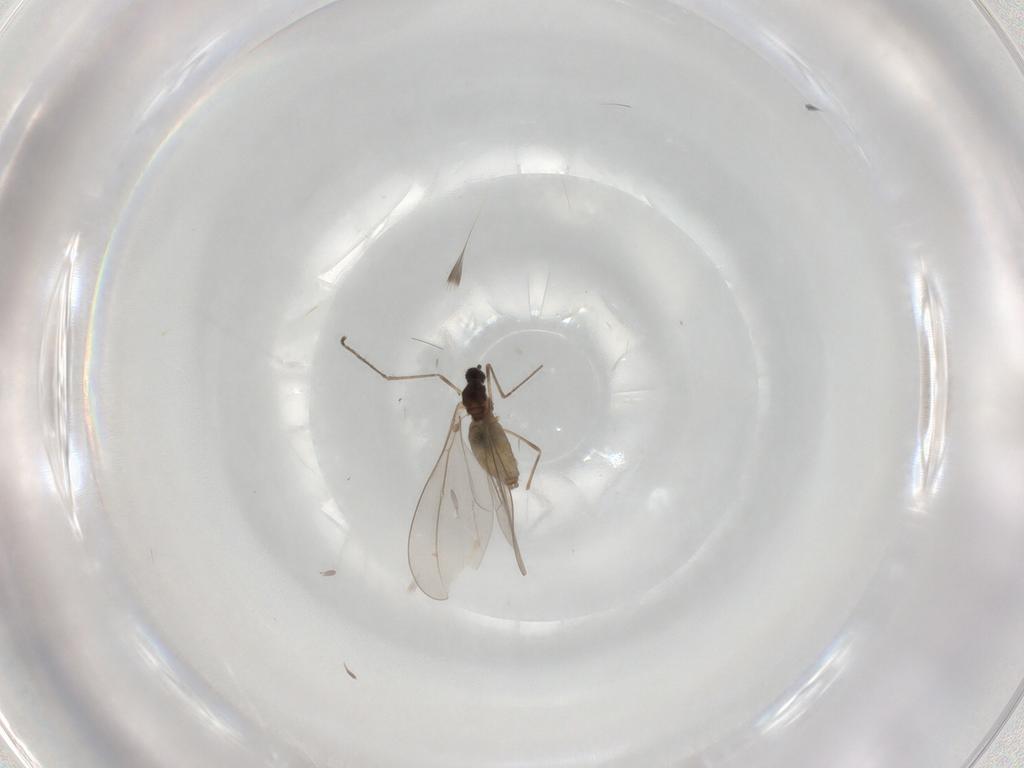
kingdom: Animalia
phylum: Arthropoda
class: Insecta
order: Diptera
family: Cecidomyiidae
